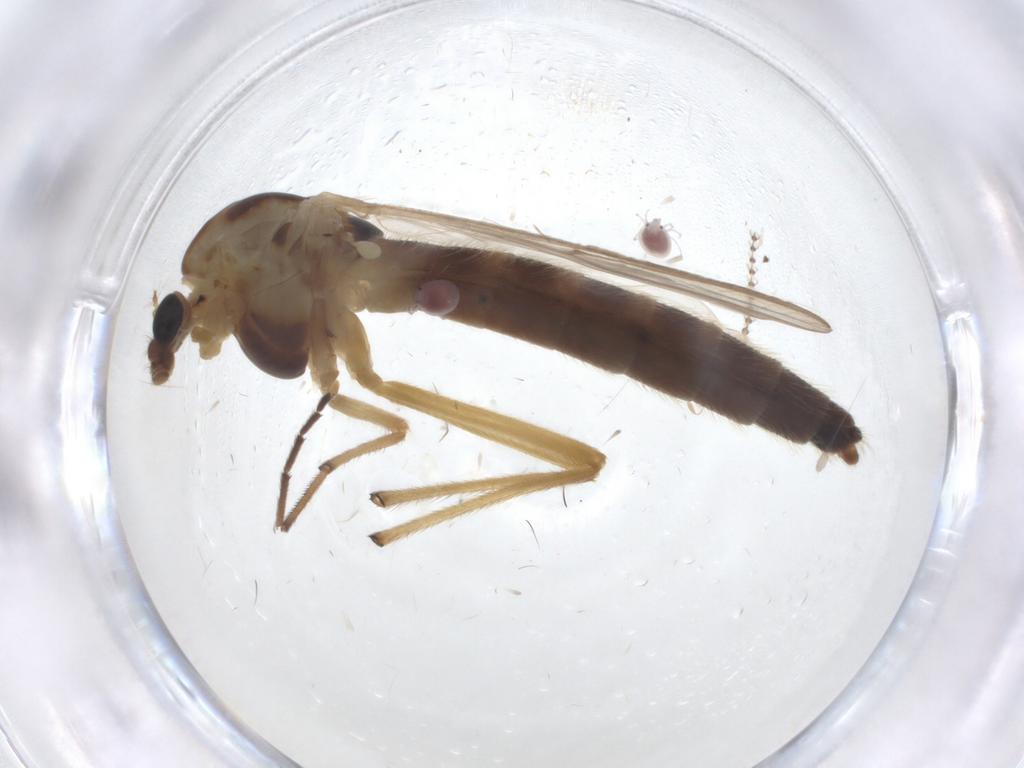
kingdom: Animalia
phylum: Arthropoda
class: Insecta
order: Diptera
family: Chironomidae
